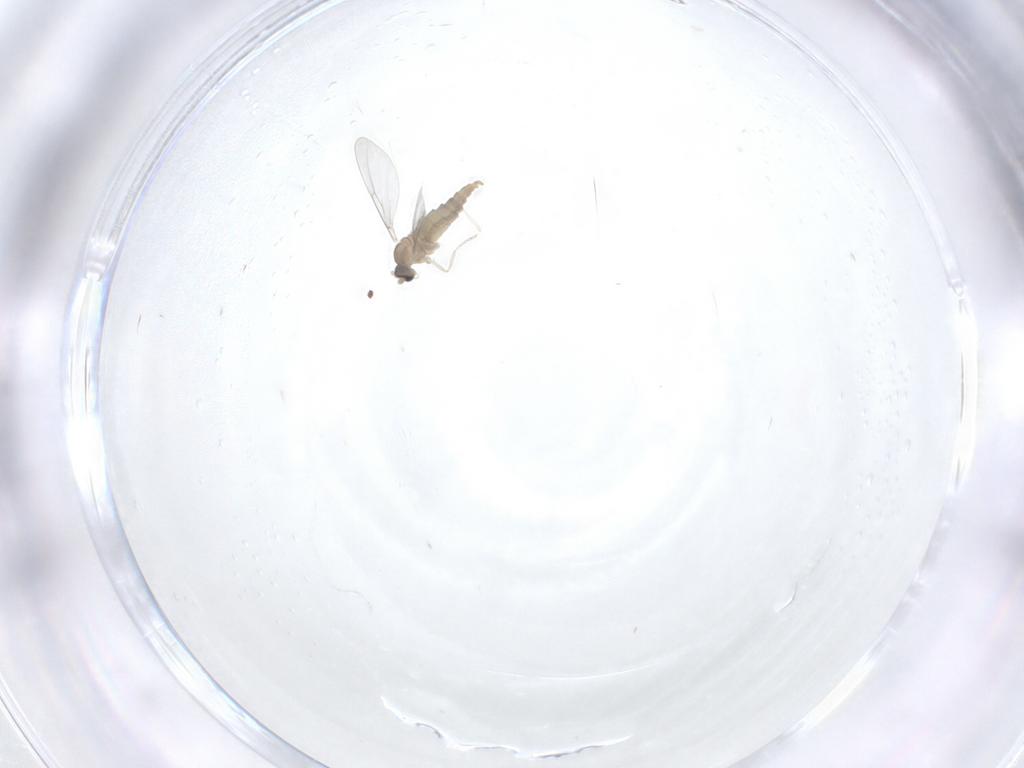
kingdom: Animalia
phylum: Arthropoda
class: Insecta
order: Diptera
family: Cecidomyiidae
